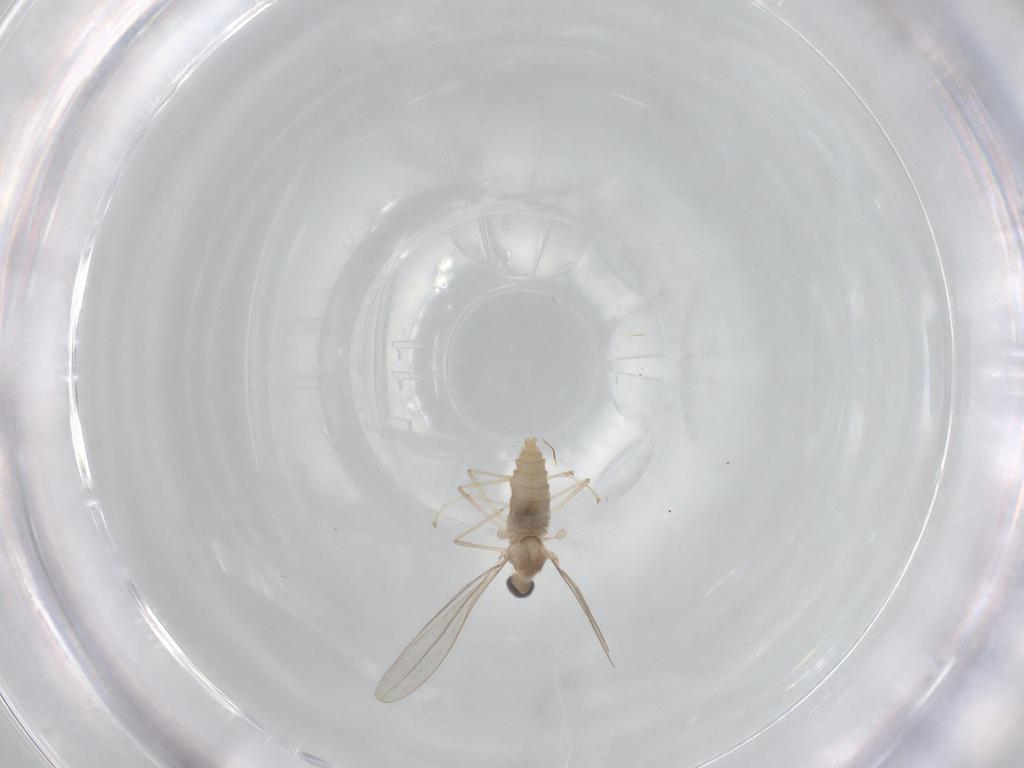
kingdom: Animalia
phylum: Arthropoda
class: Insecta
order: Diptera
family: Cecidomyiidae
